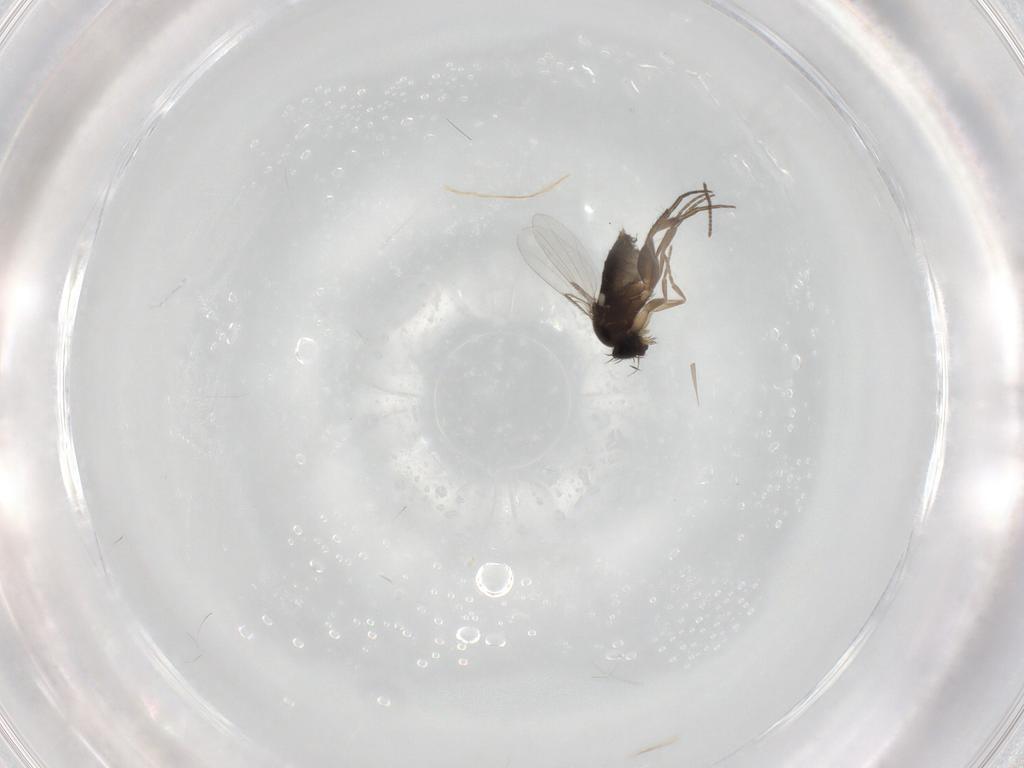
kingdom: Animalia
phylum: Arthropoda
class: Insecta
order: Diptera
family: Phoridae
